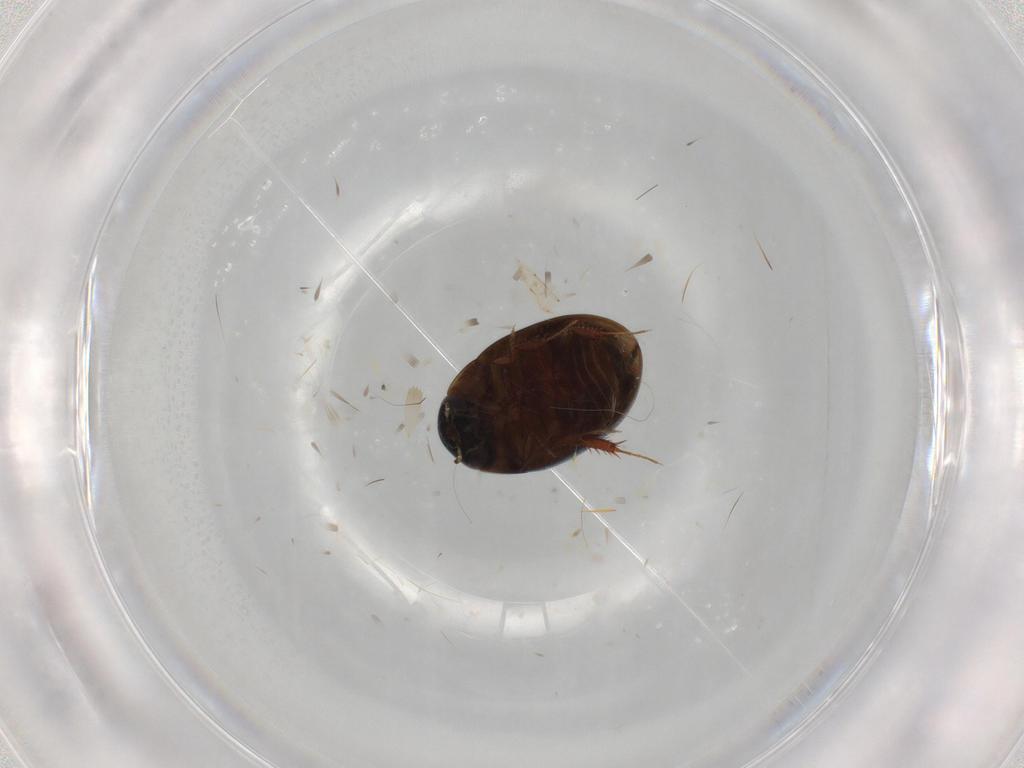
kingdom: Animalia
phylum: Arthropoda
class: Insecta
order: Coleoptera
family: Hydrophilidae
